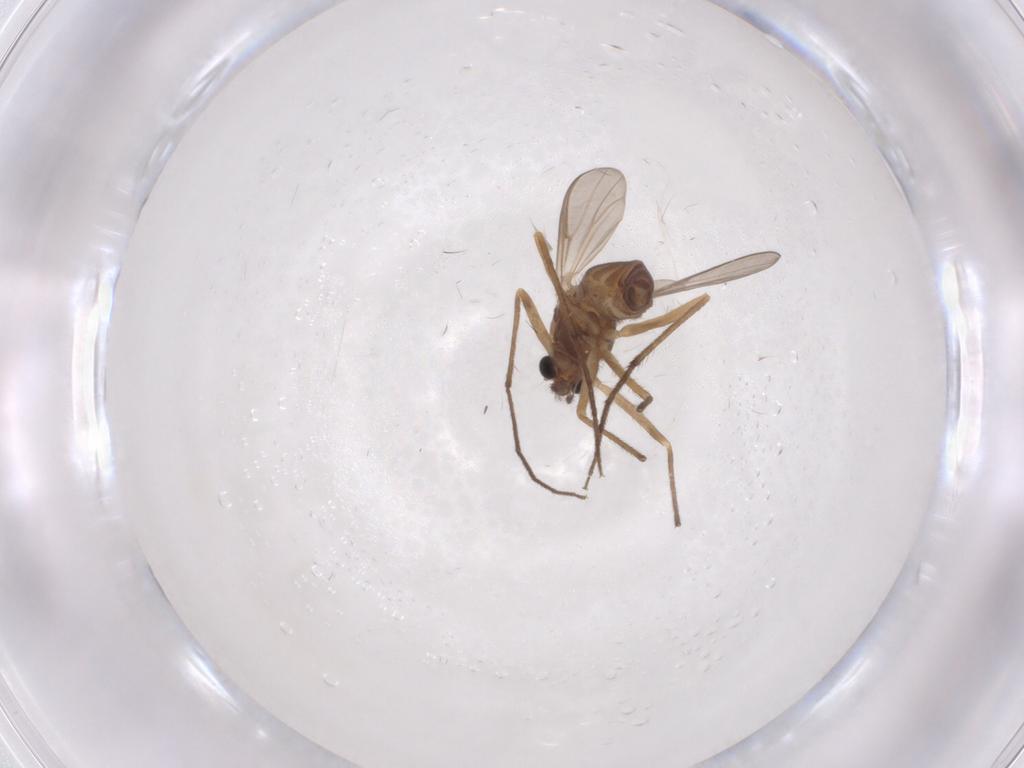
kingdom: Animalia
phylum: Arthropoda
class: Insecta
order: Diptera
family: Chironomidae
